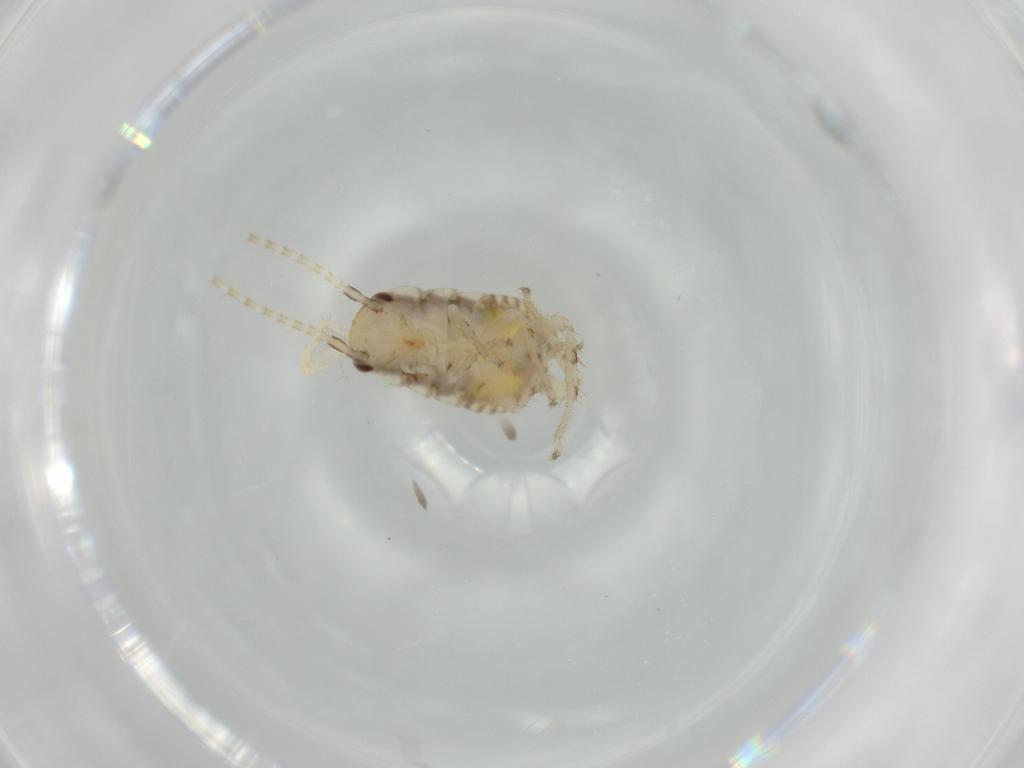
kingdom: Animalia
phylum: Arthropoda
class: Insecta
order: Blattodea
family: Ectobiidae
